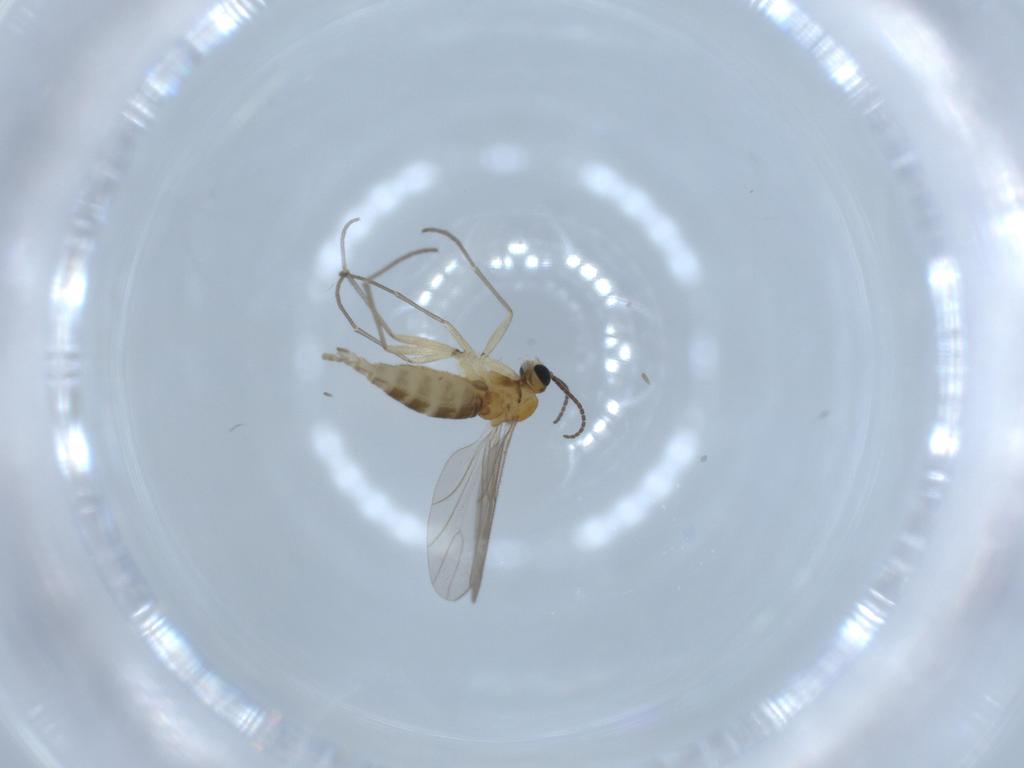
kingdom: Animalia
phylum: Arthropoda
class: Insecta
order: Diptera
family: Sciaridae
